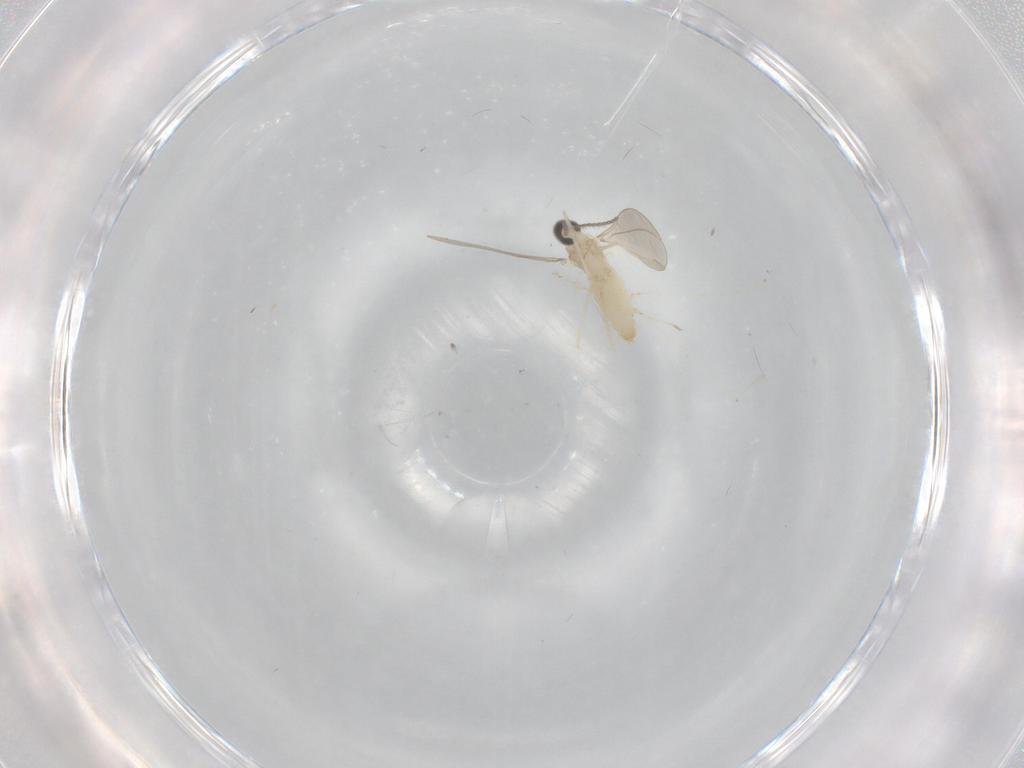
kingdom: Animalia
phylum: Arthropoda
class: Insecta
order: Diptera
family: Cecidomyiidae
